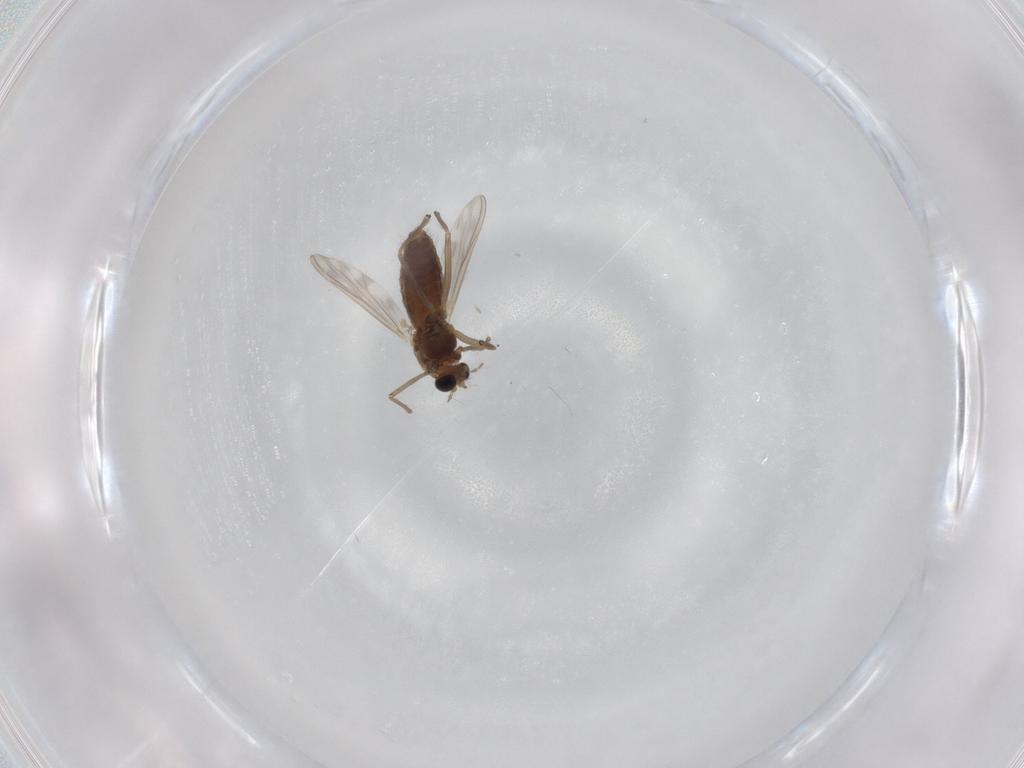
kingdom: Animalia
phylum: Arthropoda
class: Insecta
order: Diptera
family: Chironomidae
